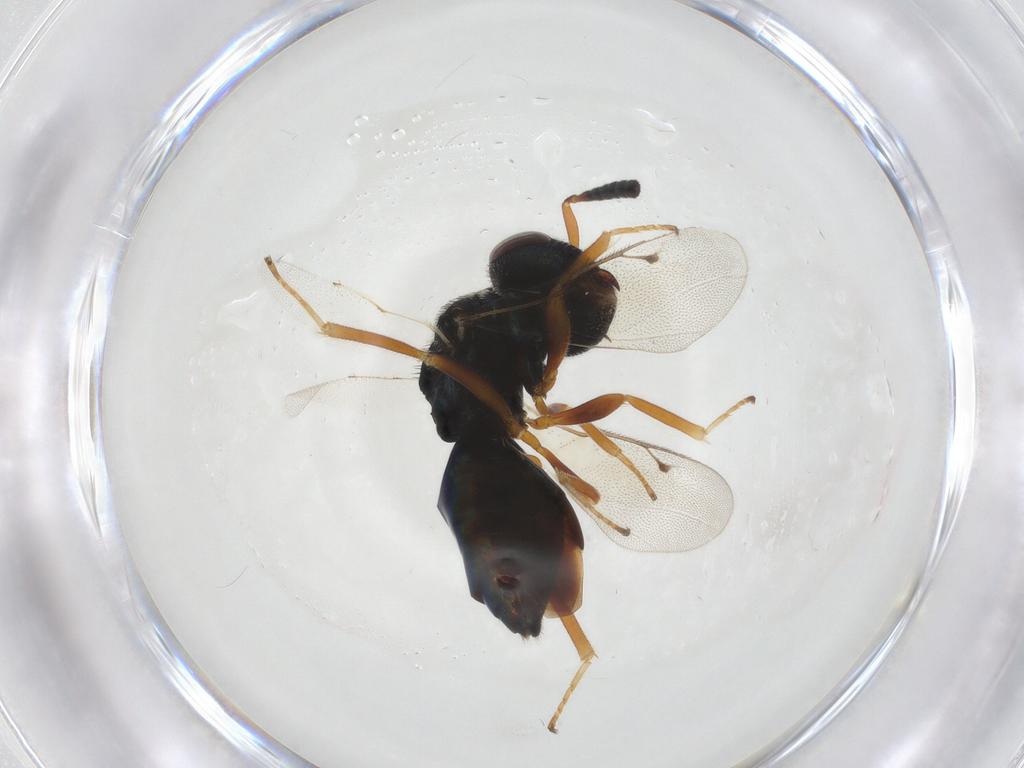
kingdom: Animalia
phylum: Arthropoda
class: Insecta
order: Hymenoptera
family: Agaonidae
